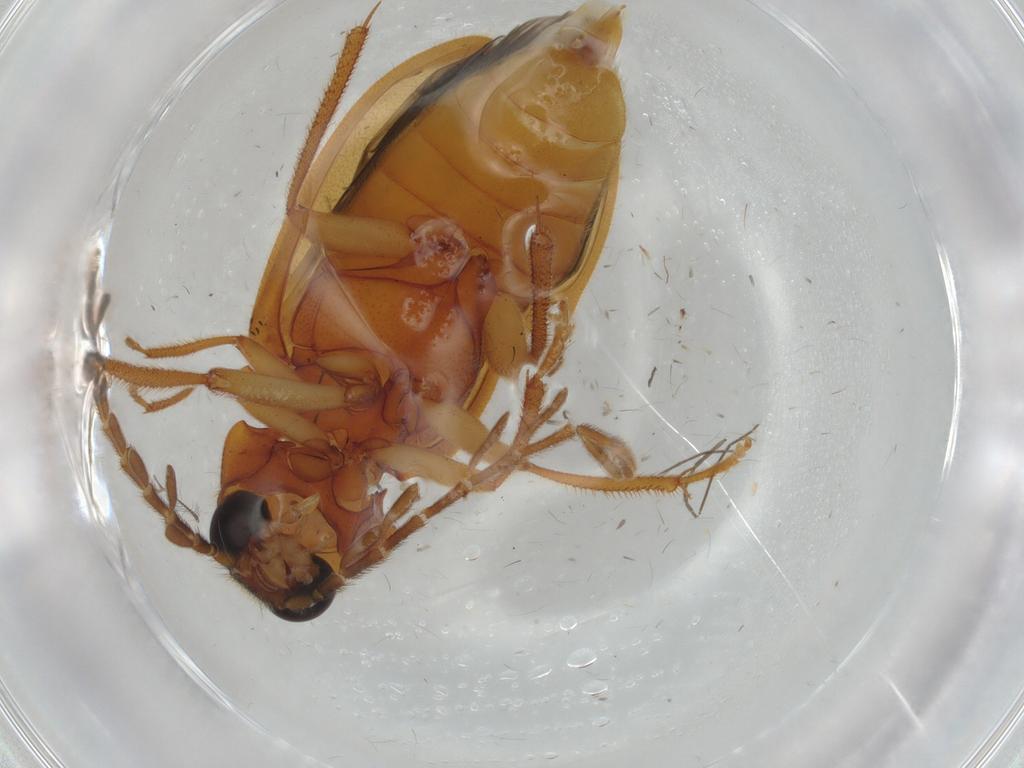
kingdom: Animalia
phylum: Arthropoda
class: Insecta
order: Coleoptera
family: Ptilodactylidae
